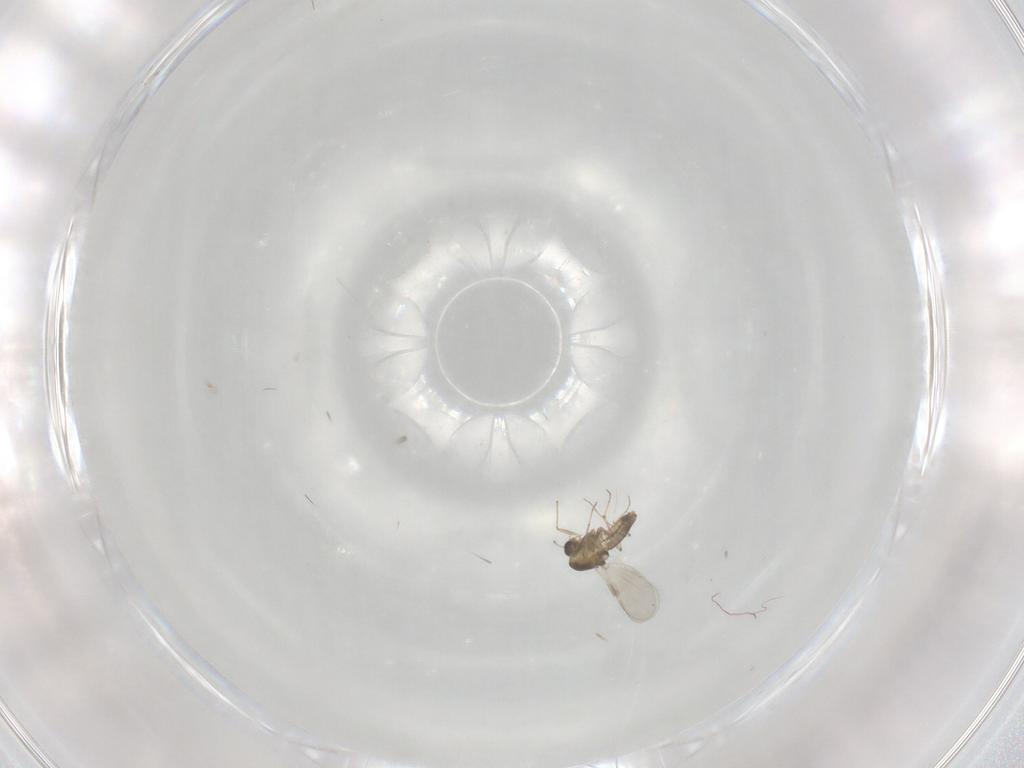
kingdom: Animalia
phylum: Arthropoda
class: Insecta
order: Diptera
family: Chironomidae
